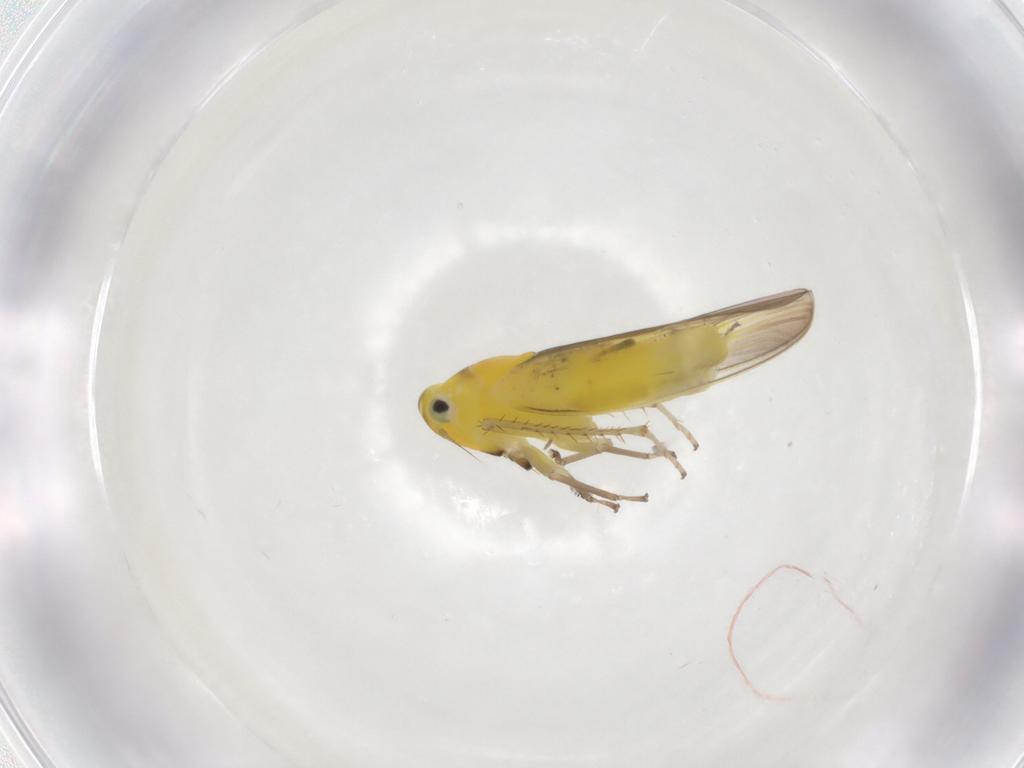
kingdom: Animalia
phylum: Arthropoda
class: Insecta
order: Hemiptera
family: Cicadellidae
